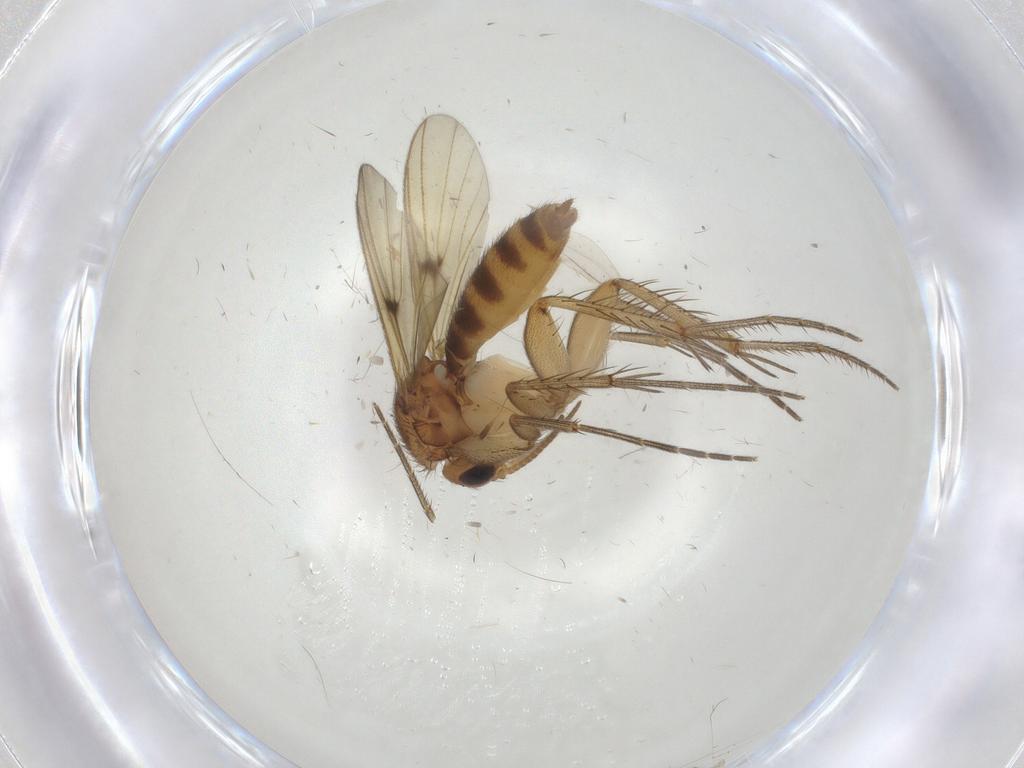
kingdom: Animalia
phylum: Arthropoda
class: Insecta
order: Diptera
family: Cecidomyiidae
